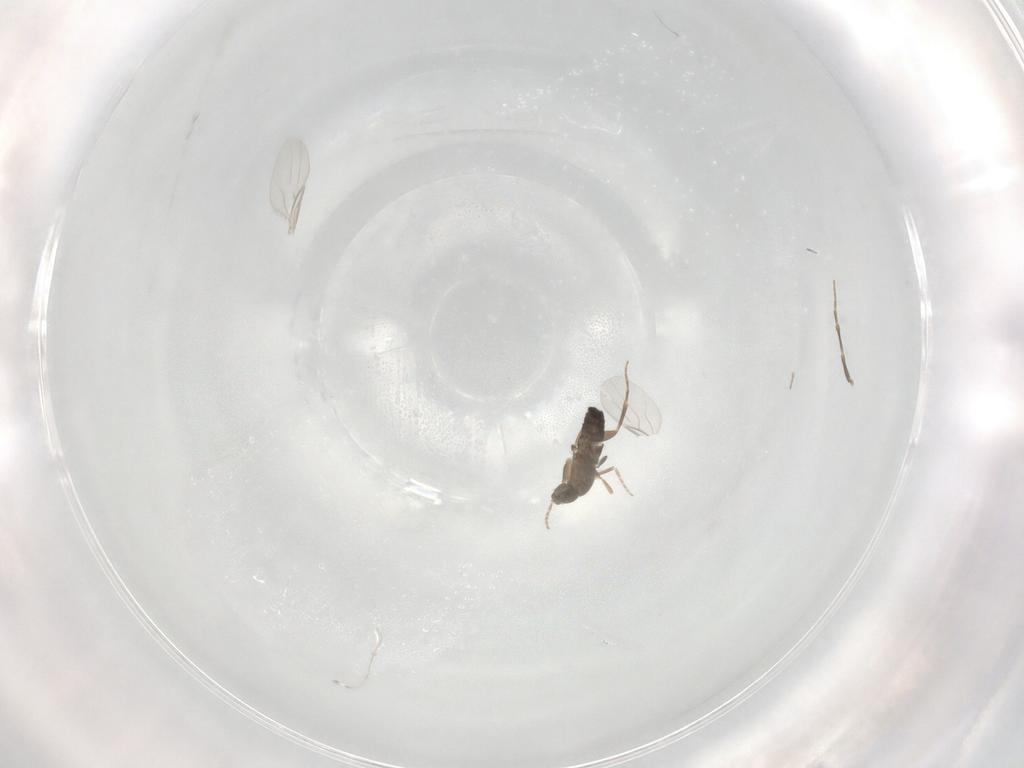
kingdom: Animalia
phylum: Arthropoda
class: Insecta
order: Diptera
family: Phoridae
